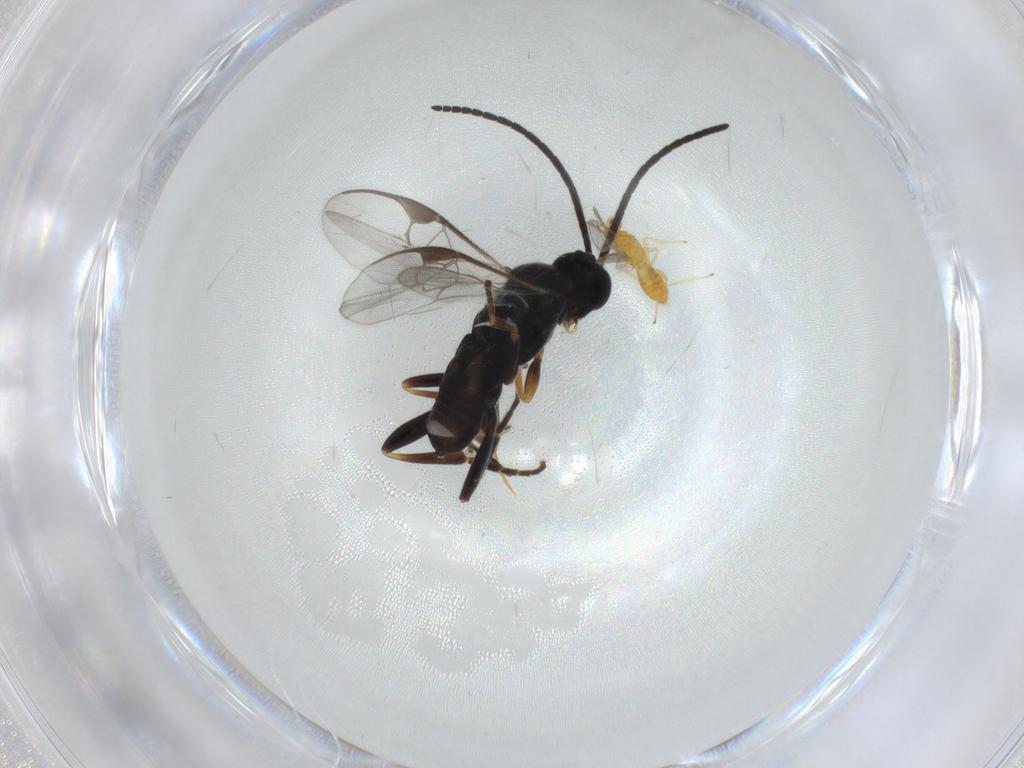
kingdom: Animalia
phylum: Arthropoda
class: Insecta
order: Hymenoptera
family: Braconidae
